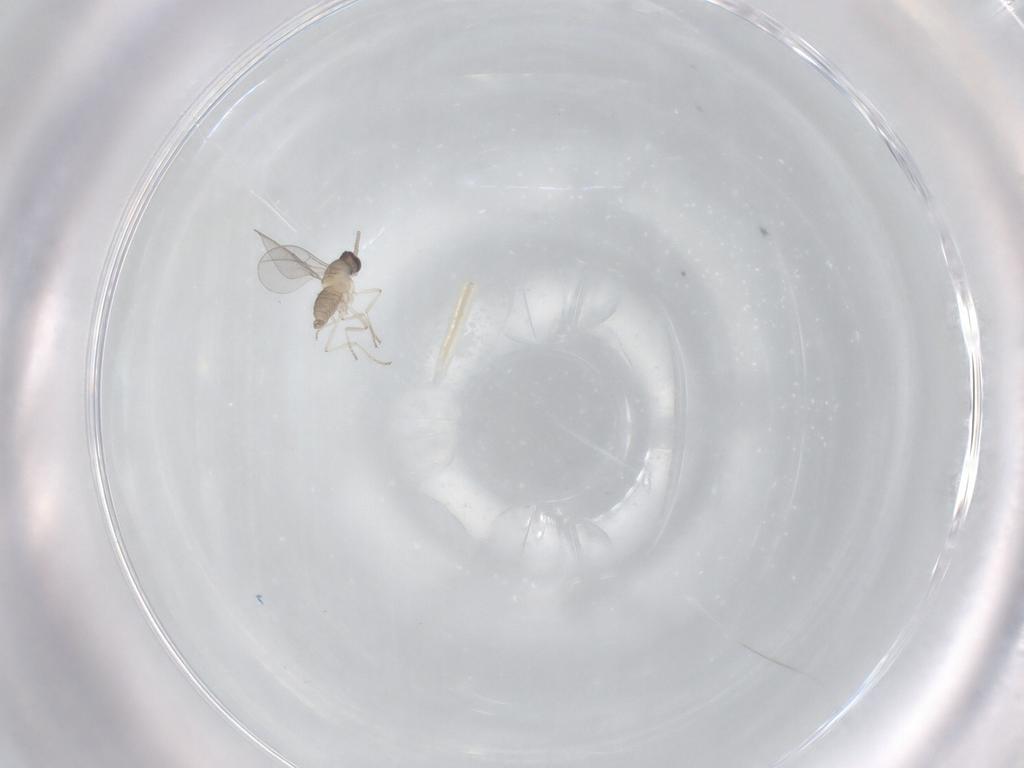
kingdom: Animalia
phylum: Arthropoda
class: Insecta
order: Diptera
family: Cecidomyiidae
